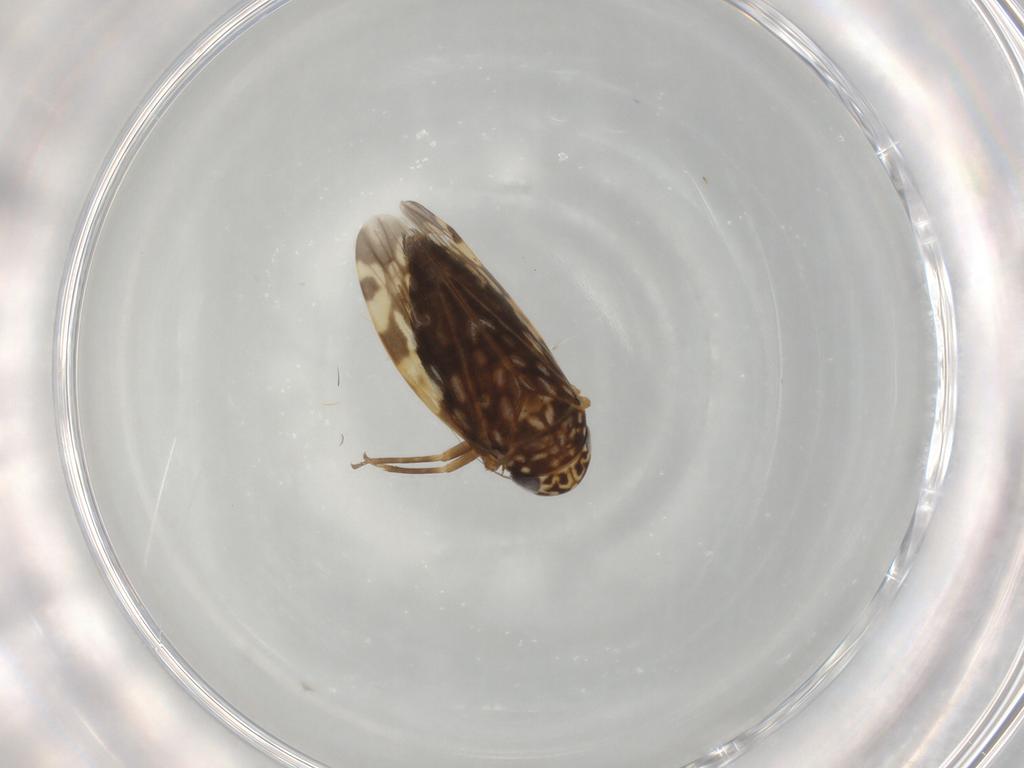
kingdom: Animalia
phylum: Arthropoda
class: Insecta
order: Hemiptera
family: Cicadellidae
